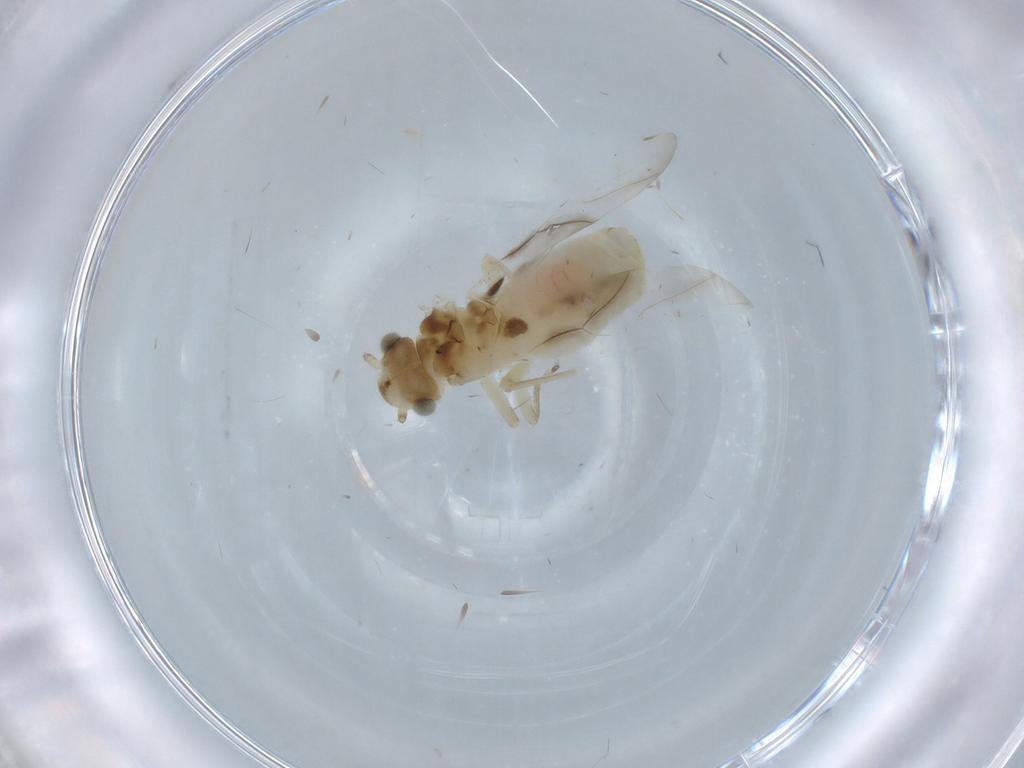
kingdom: Animalia
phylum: Arthropoda
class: Insecta
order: Psocodea
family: Stenopsocidae
